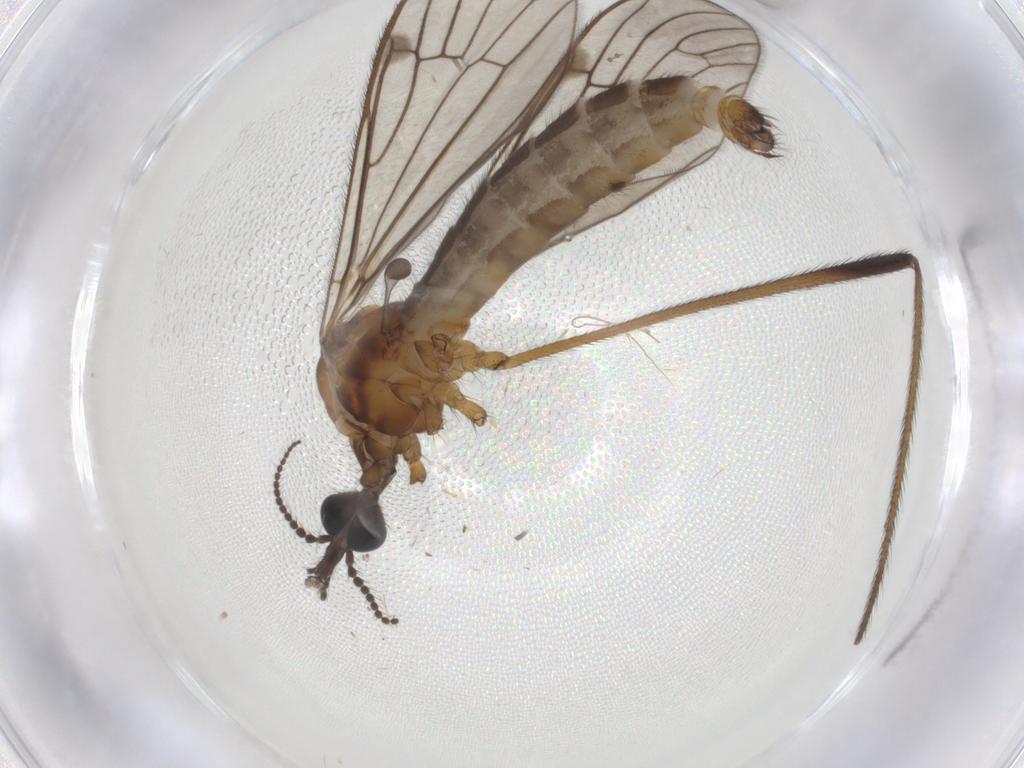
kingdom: Animalia
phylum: Arthropoda
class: Insecta
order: Diptera
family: Limoniidae
